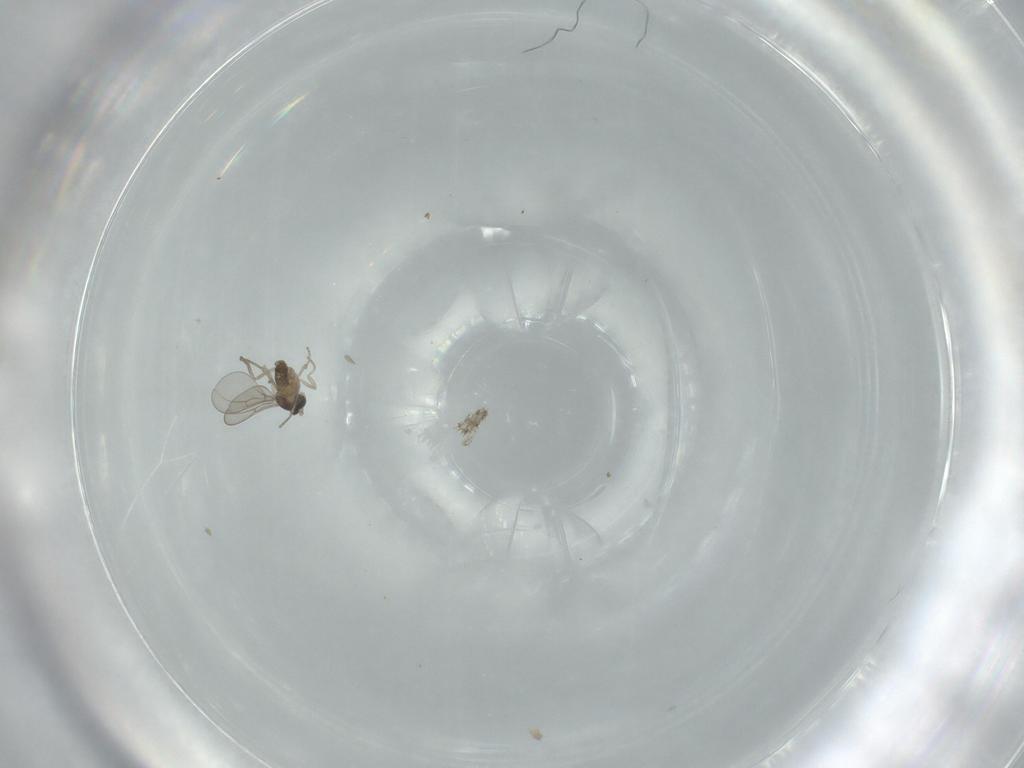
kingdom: Animalia
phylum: Arthropoda
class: Insecta
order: Diptera
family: Cecidomyiidae
